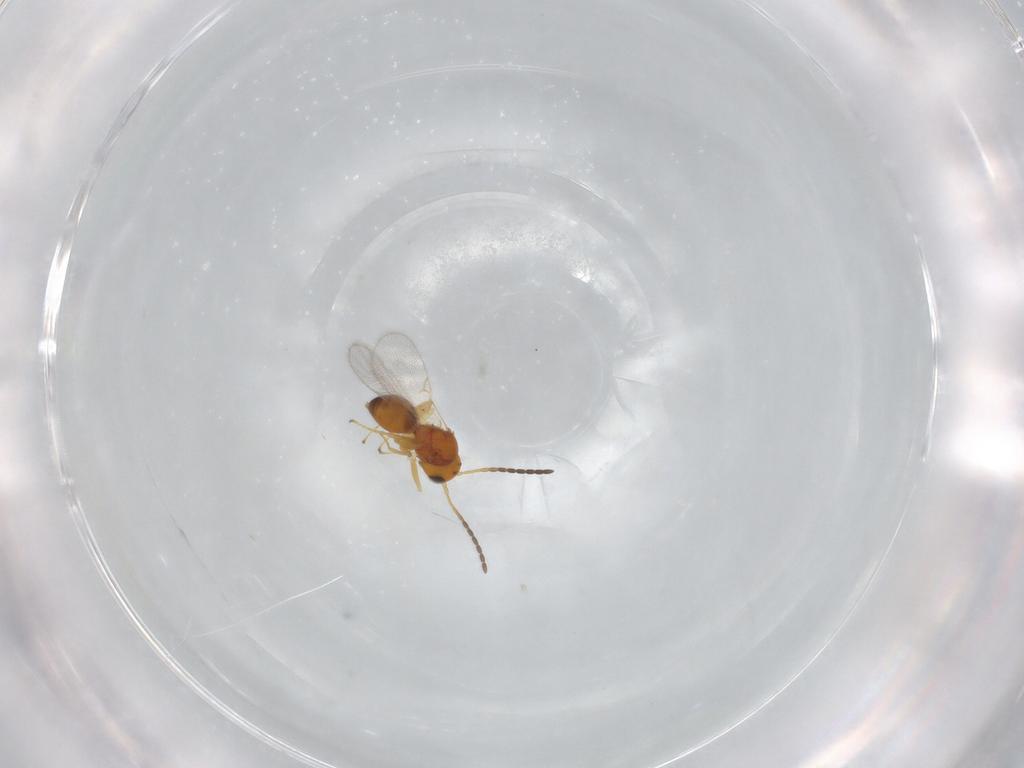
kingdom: Animalia
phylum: Arthropoda
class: Insecta
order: Hymenoptera
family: Figitidae
